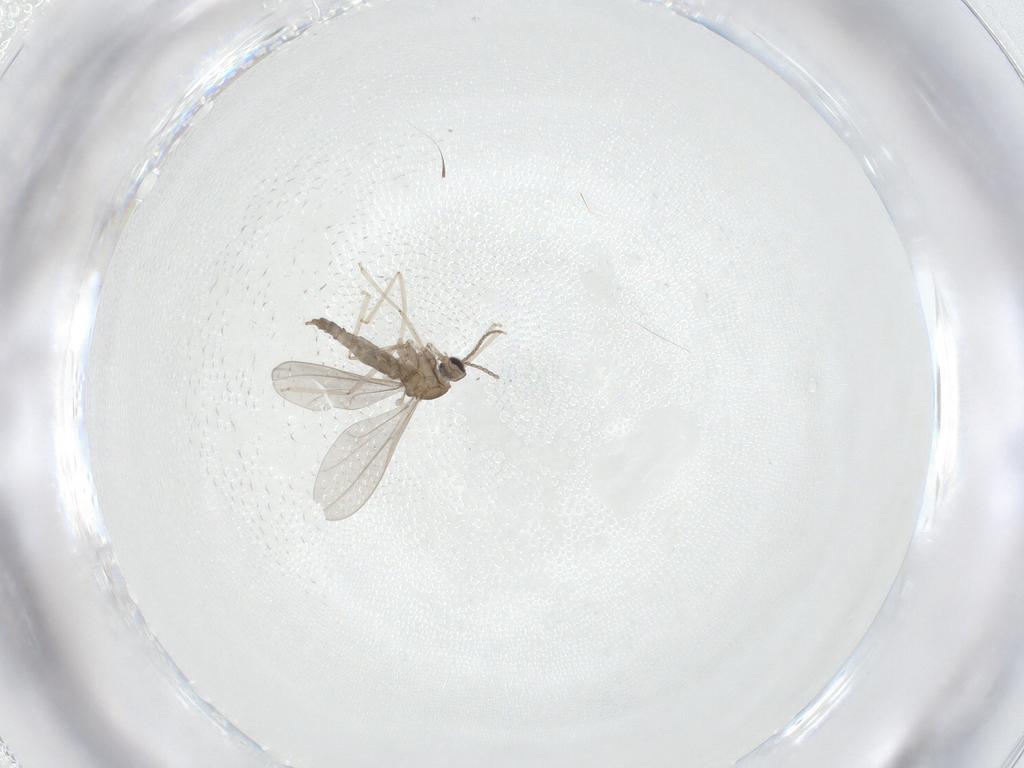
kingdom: Animalia
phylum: Arthropoda
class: Insecta
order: Diptera
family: Cecidomyiidae
